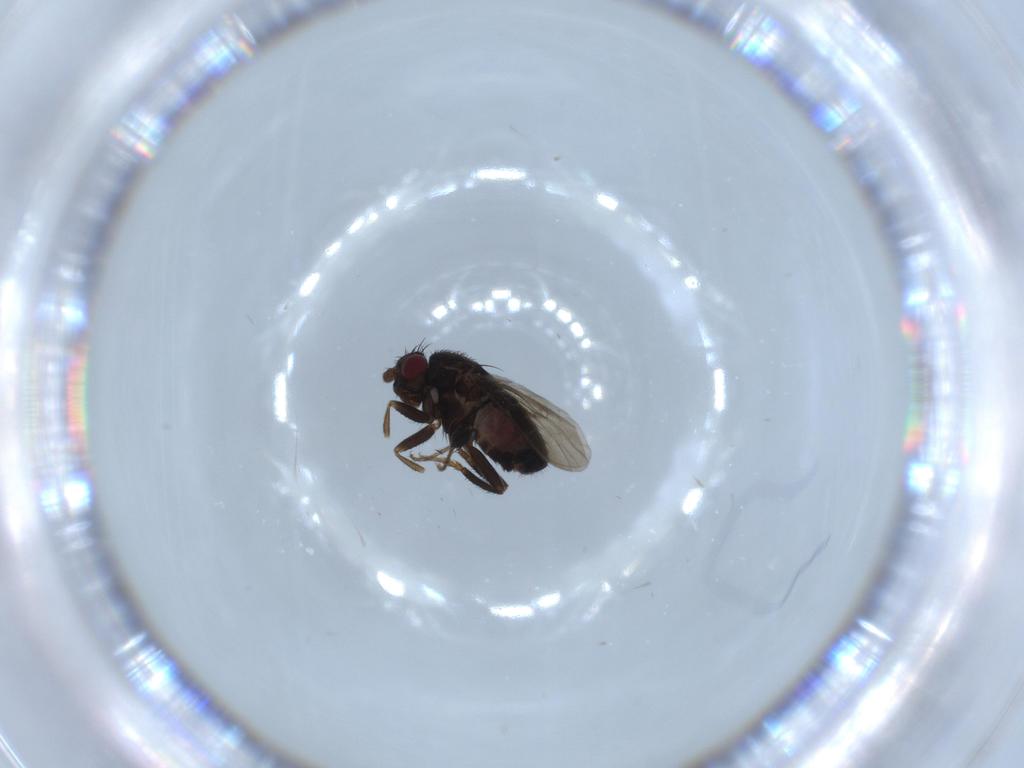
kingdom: Animalia
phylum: Arthropoda
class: Insecta
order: Diptera
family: Sphaeroceridae
